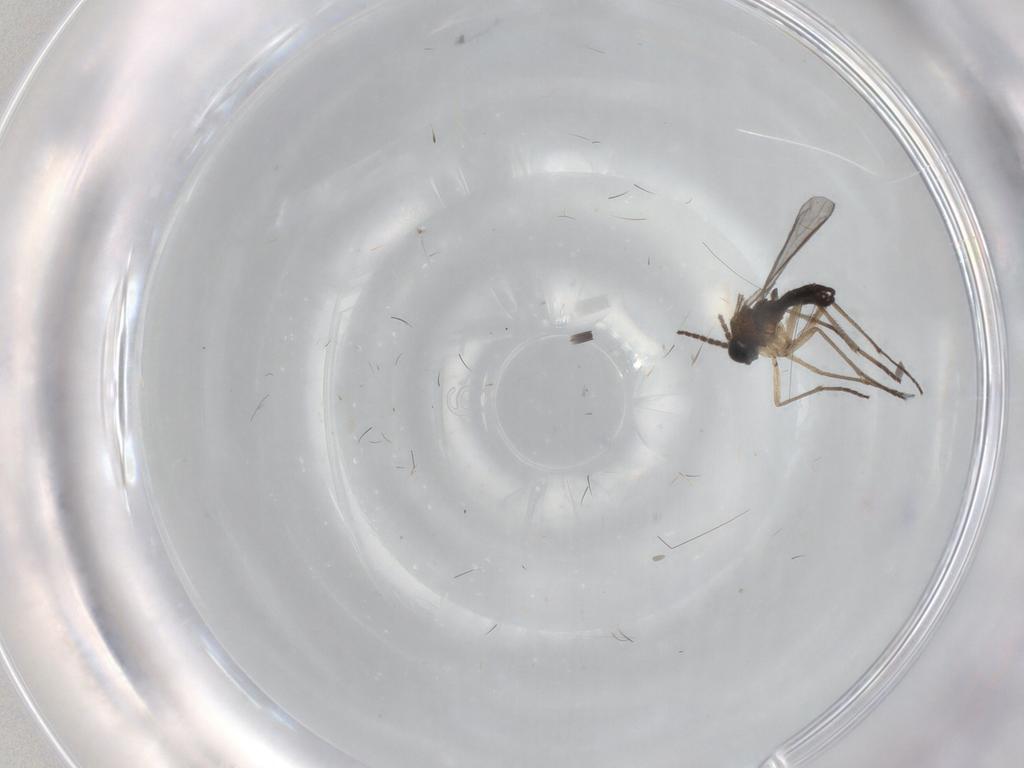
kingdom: Animalia
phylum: Arthropoda
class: Insecta
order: Diptera
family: Sciaridae
